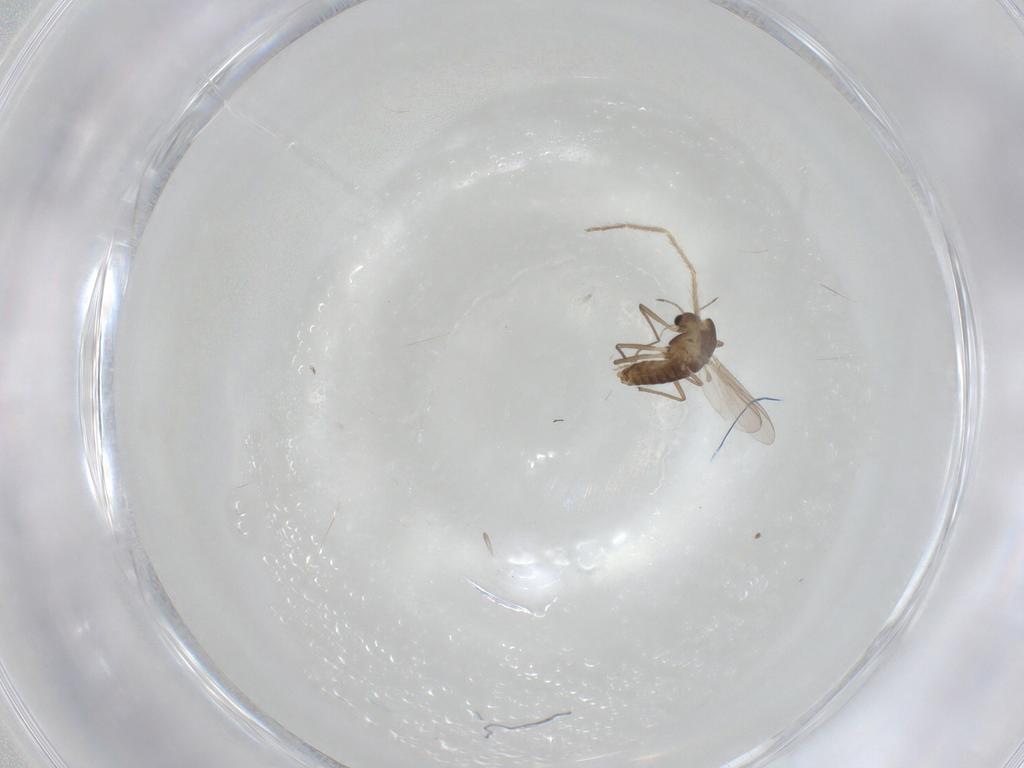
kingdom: Animalia
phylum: Arthropoda
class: Insecta
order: Diptera
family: Chironomidae
